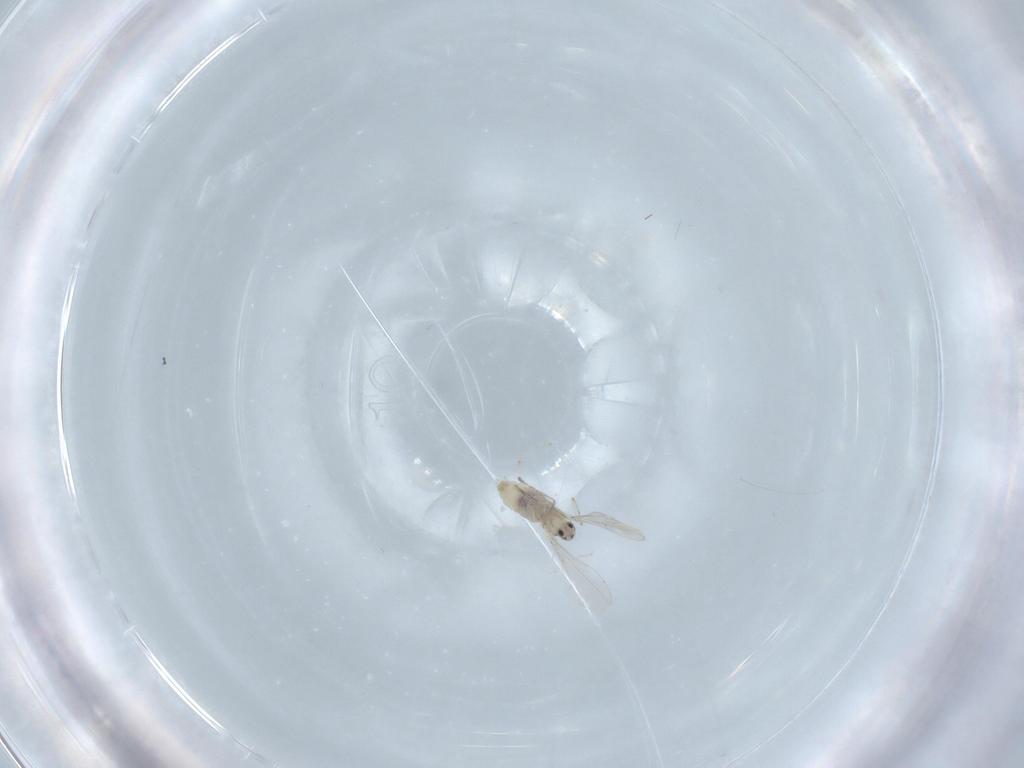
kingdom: Animalia
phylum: Arthropoda
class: Insecta
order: Diptera
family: Cecidomyiidae
